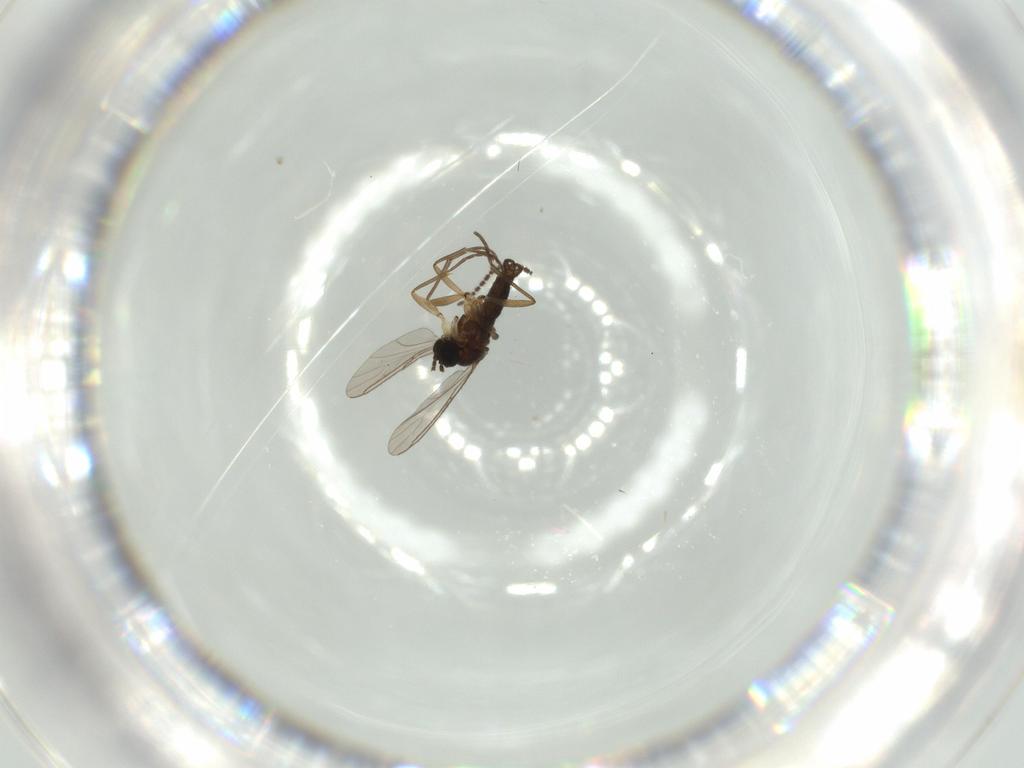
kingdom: Animalia
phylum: Arthropoda
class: Insecta
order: Diptera
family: Sciaridae
